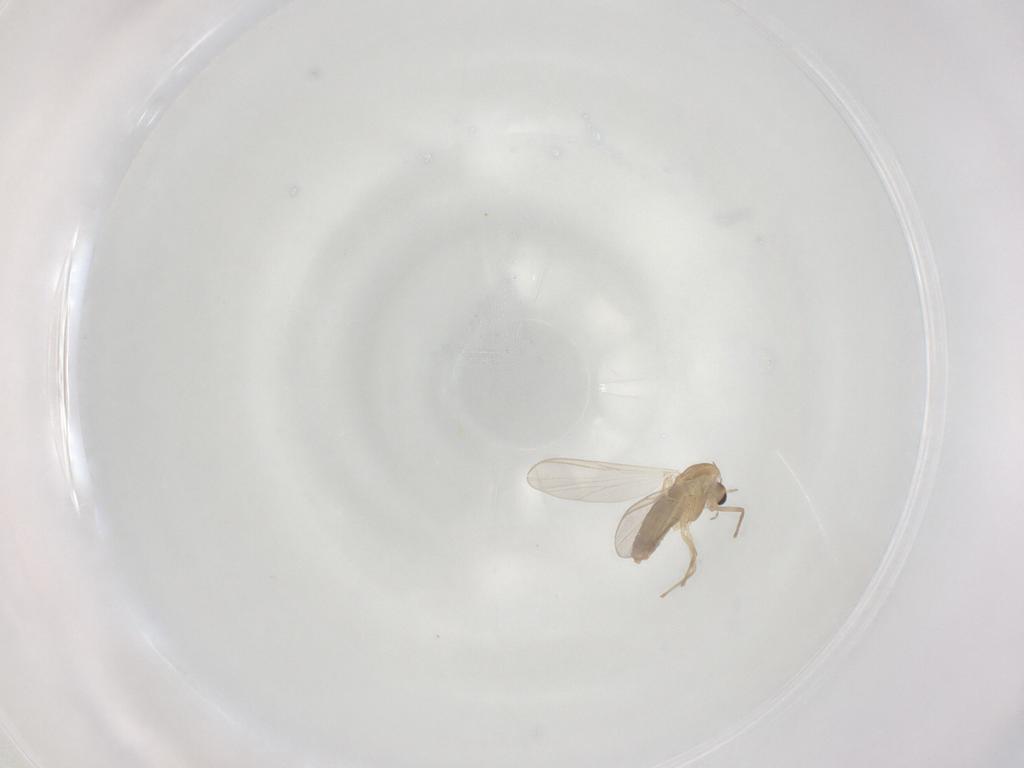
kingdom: Animalia
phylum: Arthropoda
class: Insecta
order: Diptera
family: Chironomidae
